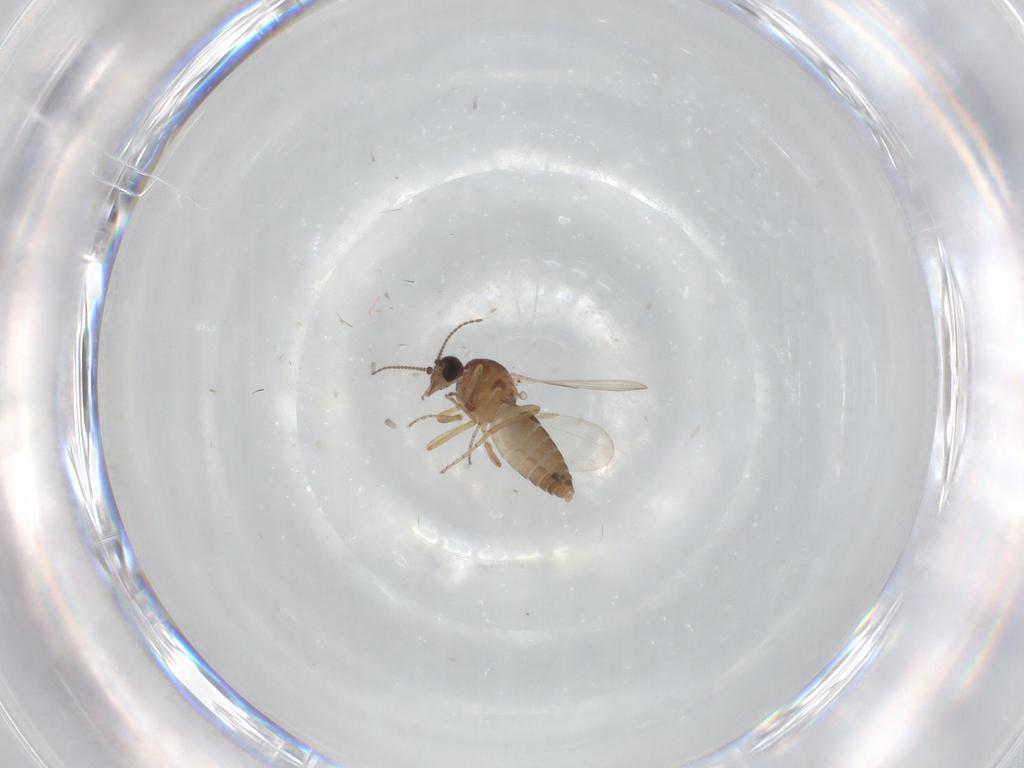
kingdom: Animalia
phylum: Arthropoda
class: Insecta
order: Diptera
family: Ceratopogonidae
